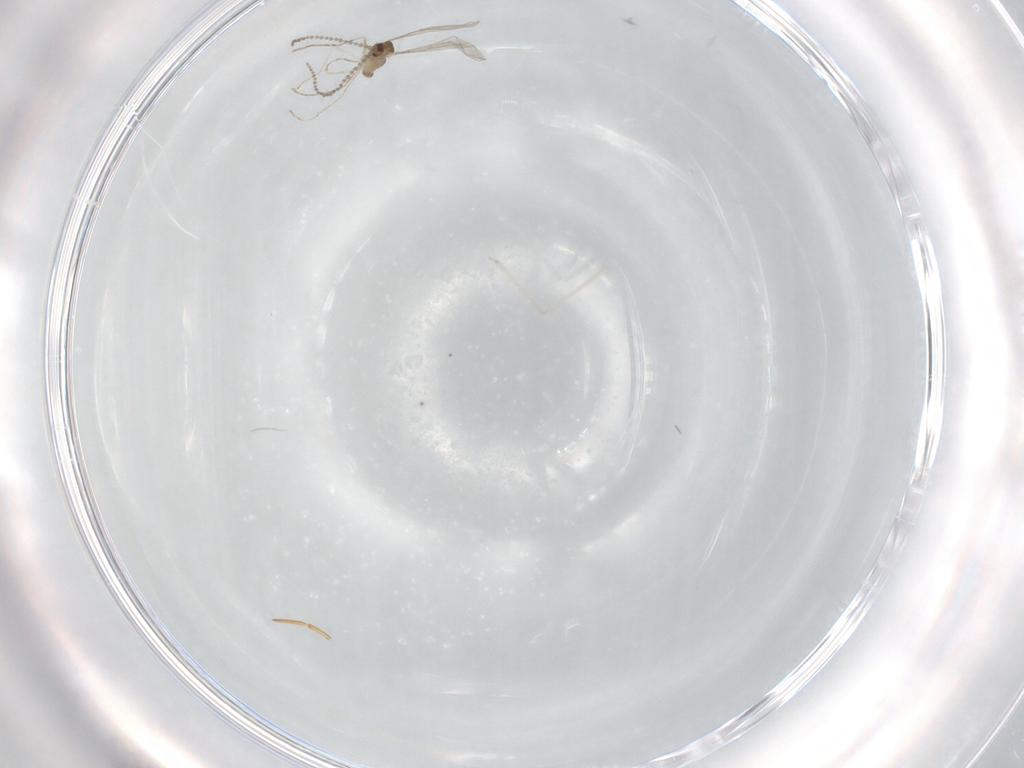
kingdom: Animalia
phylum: Arthropoda
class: Insecta
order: Diptera
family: Cecidomyiidae
